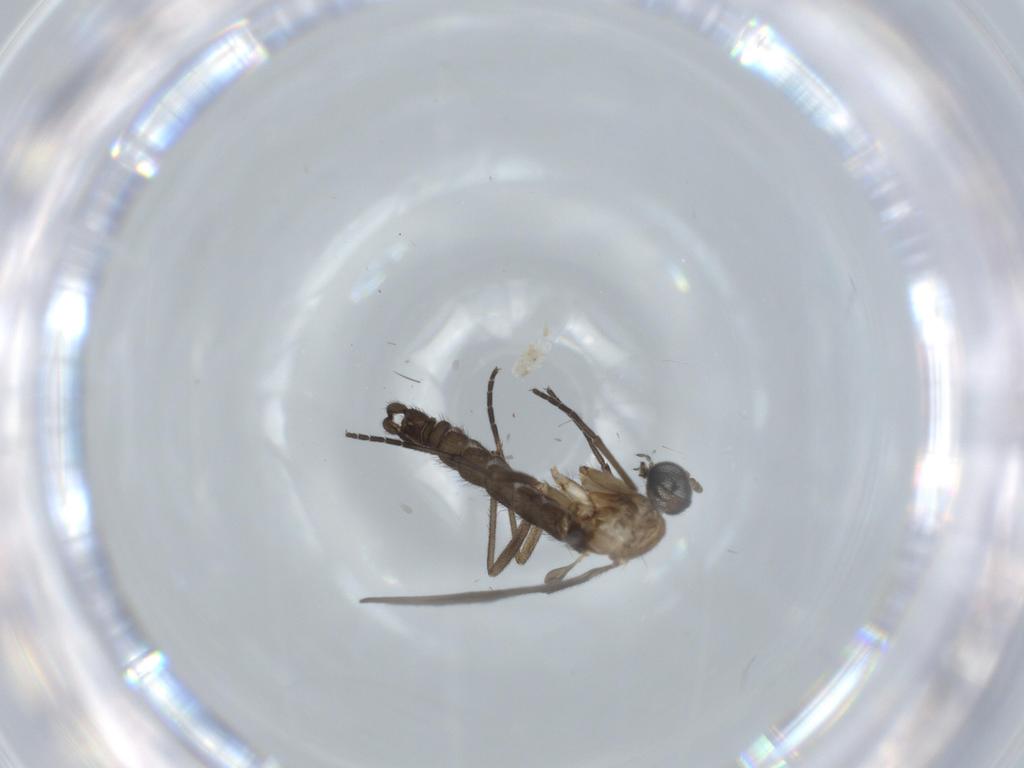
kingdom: Animalia
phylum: Arthropoda
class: Insecta
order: Diptera
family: Sciaridae
